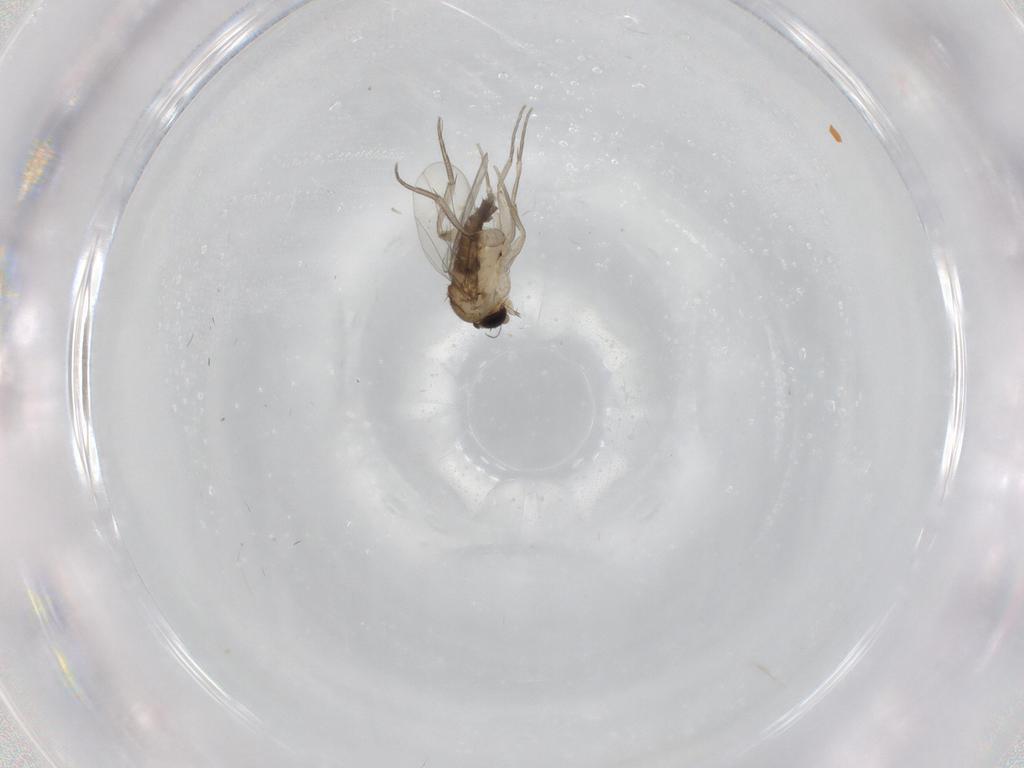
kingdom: Animalia
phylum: Arthropoda
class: Insecta
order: Diptera
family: Phoridae
